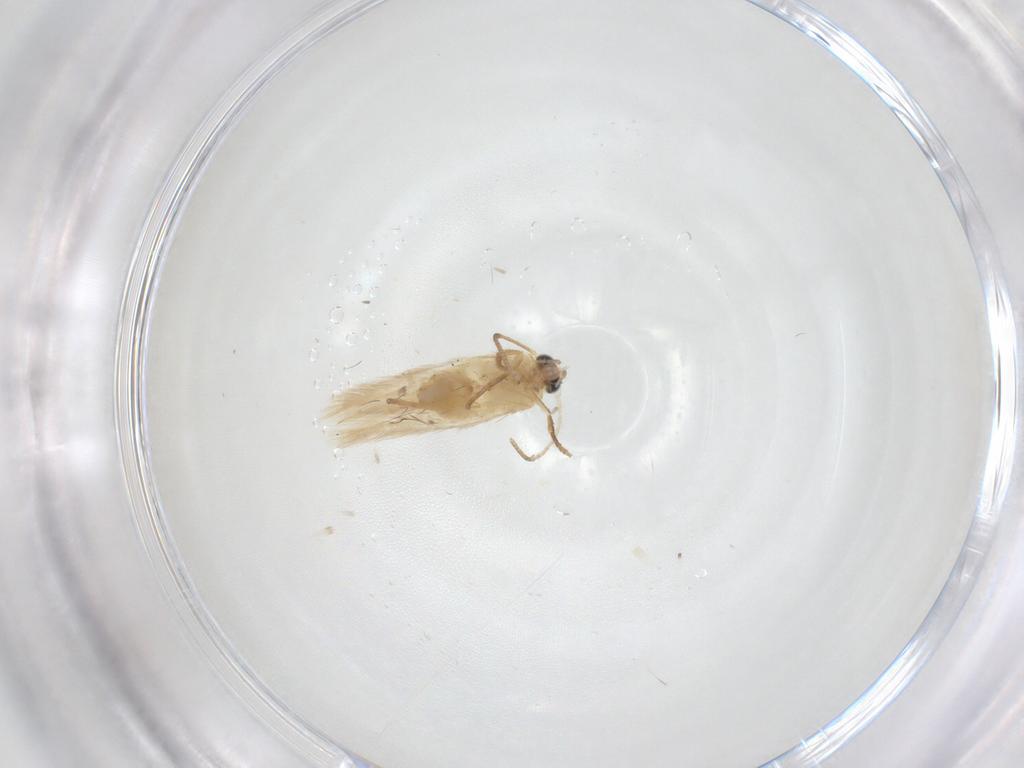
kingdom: Animalia
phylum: Arthropoda
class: Insecta
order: Lepidoptera
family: Nepticulidae
